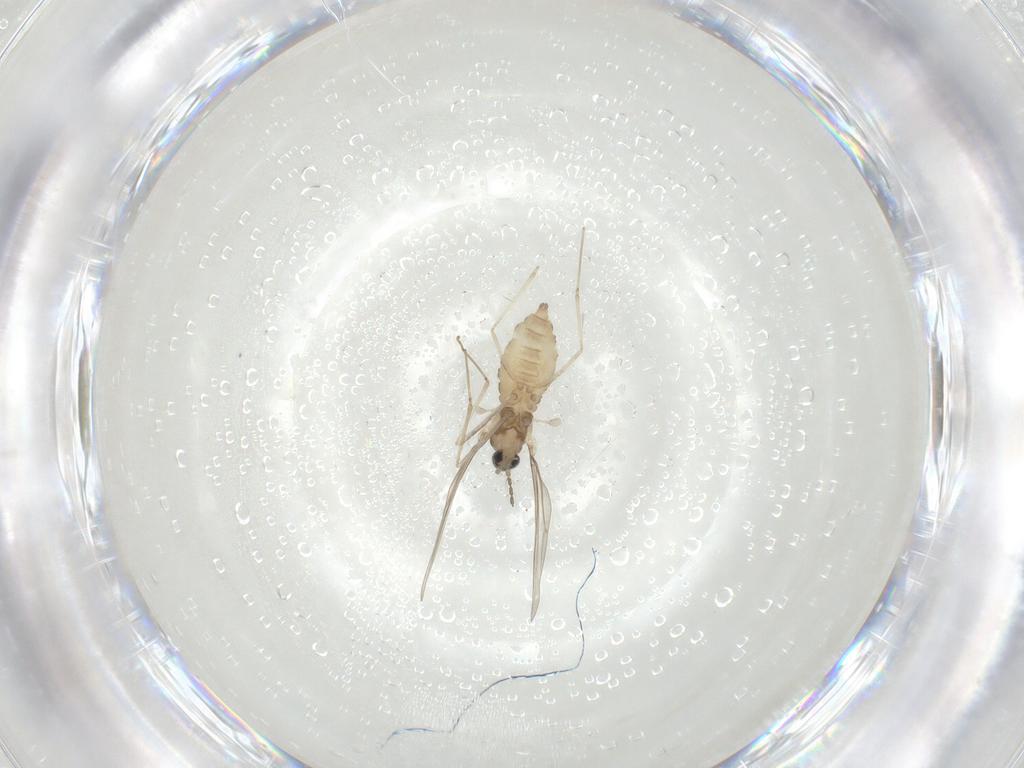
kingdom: Animalia
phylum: Arthropoda
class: Insecta
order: Diptera
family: Cecidomyiidae
